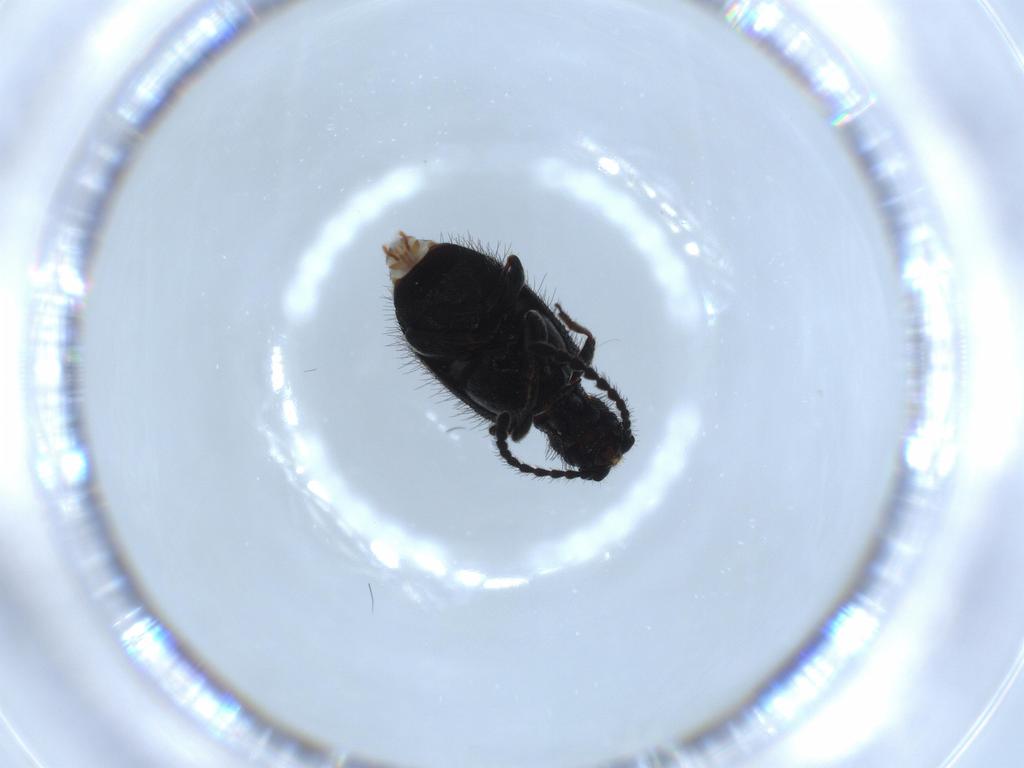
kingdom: Animalia
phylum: Arthropoda
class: Insecta
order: Coleoptera
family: Ptinidae
